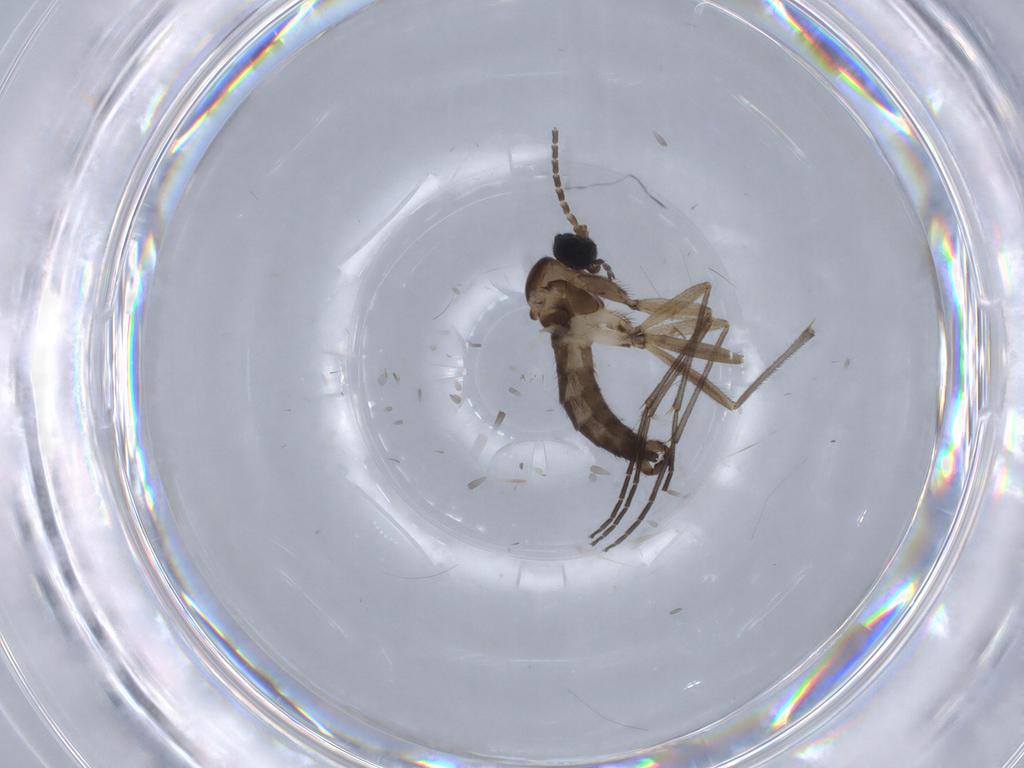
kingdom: Animalia
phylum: Arthropoda
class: Insecta
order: Diptera
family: Sciaridae
